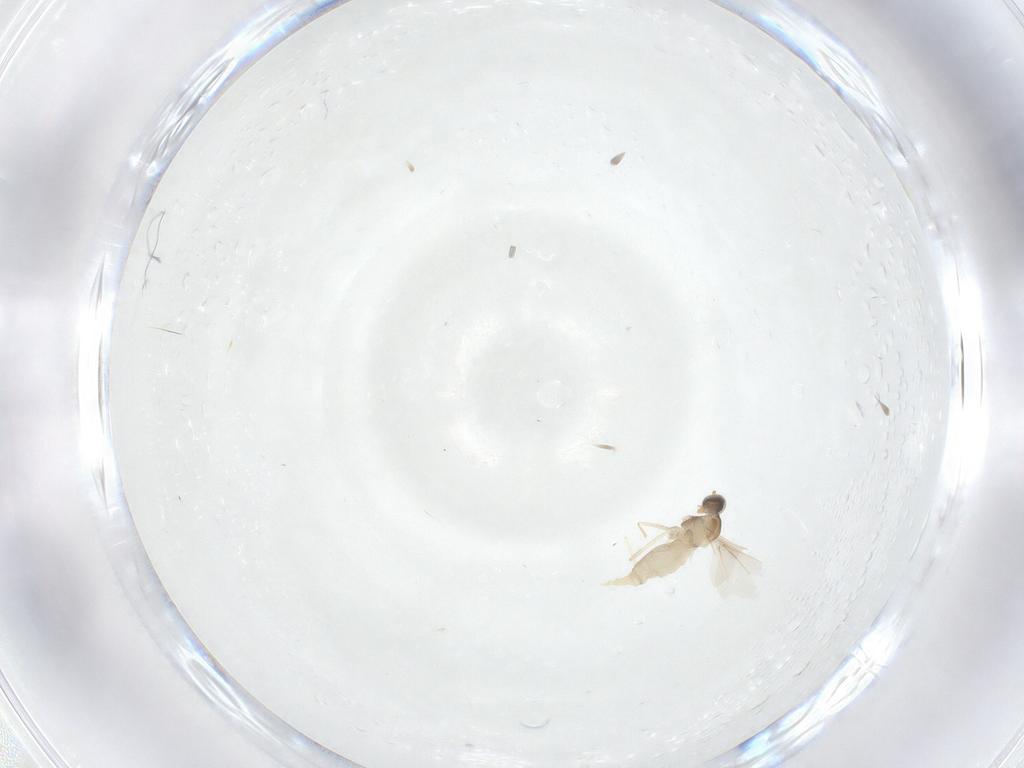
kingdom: Animalia
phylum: Arthropoda
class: Insecta
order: Diptera
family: Cecidomyiidae
